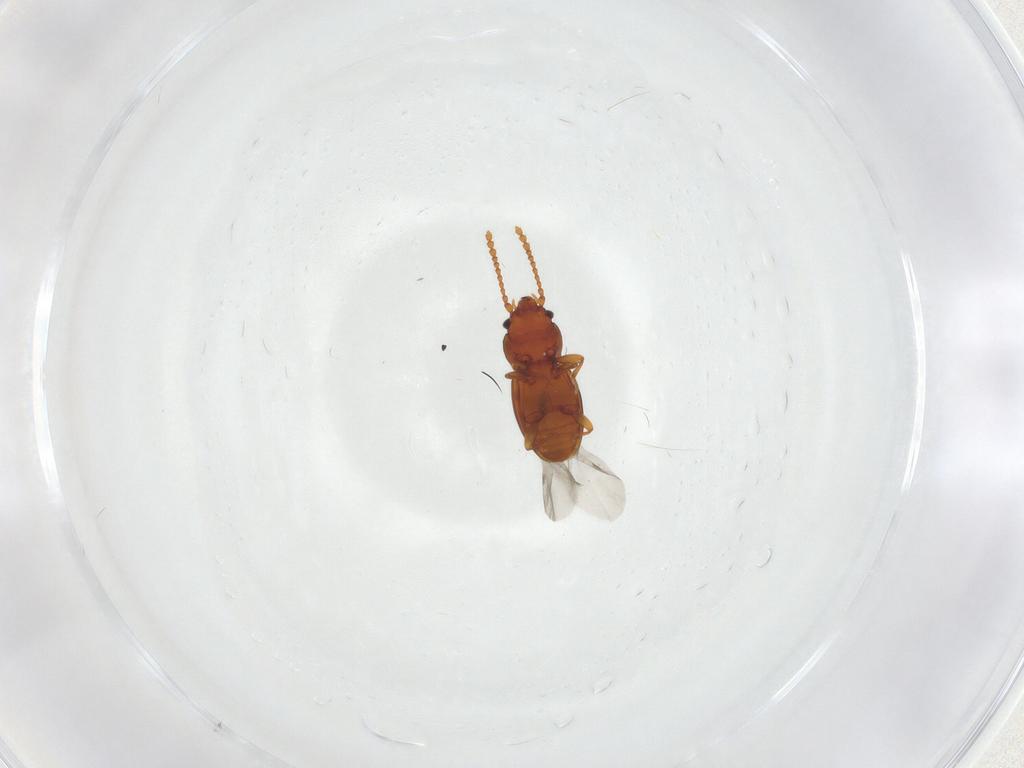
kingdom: Animalia
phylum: Arthropoda
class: Insecta
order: Coleoptera
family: Laemophloeidae
